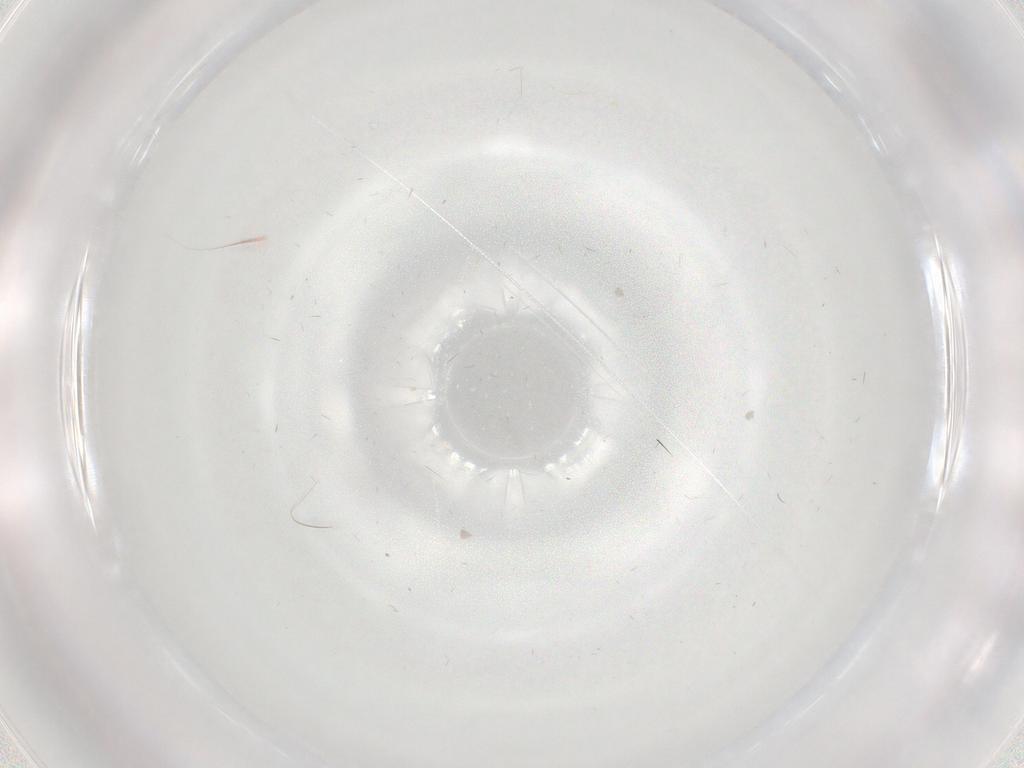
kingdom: Animalia
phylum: Arthropoda
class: Insecta
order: Diptera
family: Sciaridae
